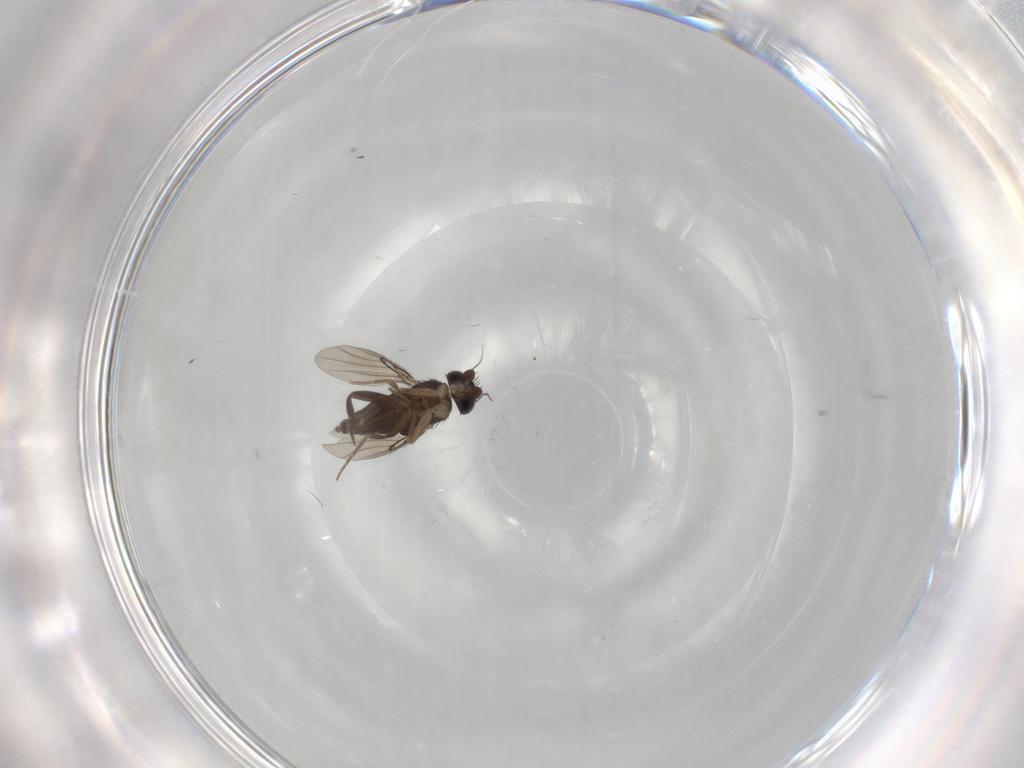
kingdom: Animalia
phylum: Arthropoda
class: Insecta
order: Diptera
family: Phoridae
